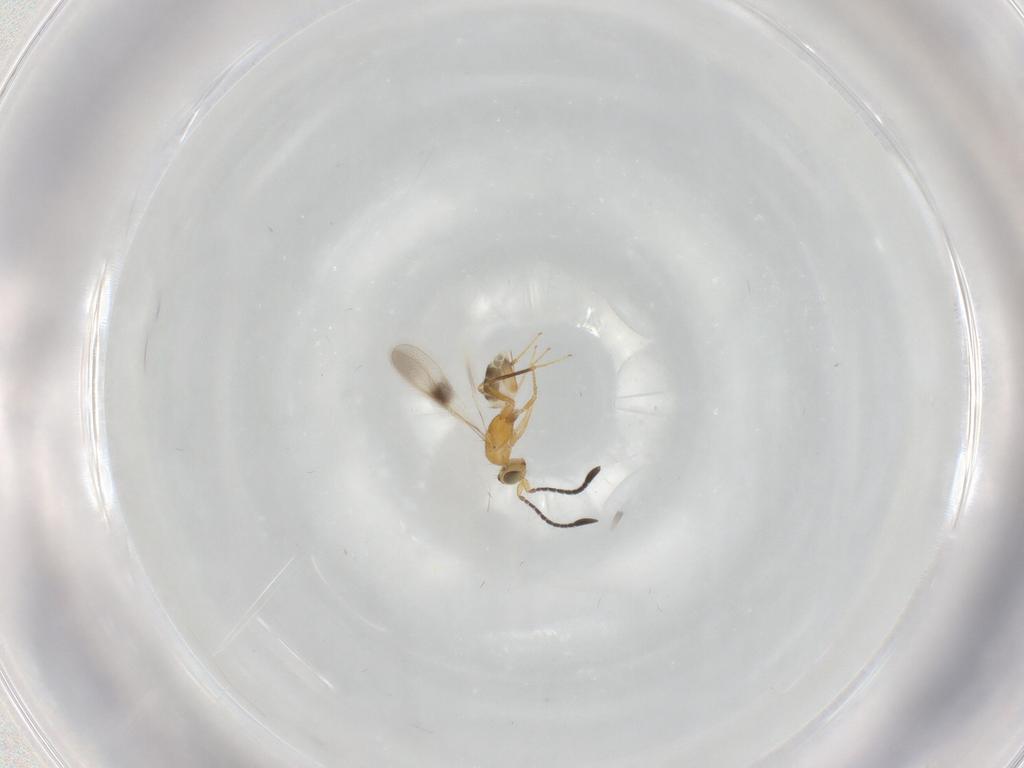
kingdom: Animalia
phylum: Arthropoda
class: Insecta
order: Hymenoptera
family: Mymaridae
